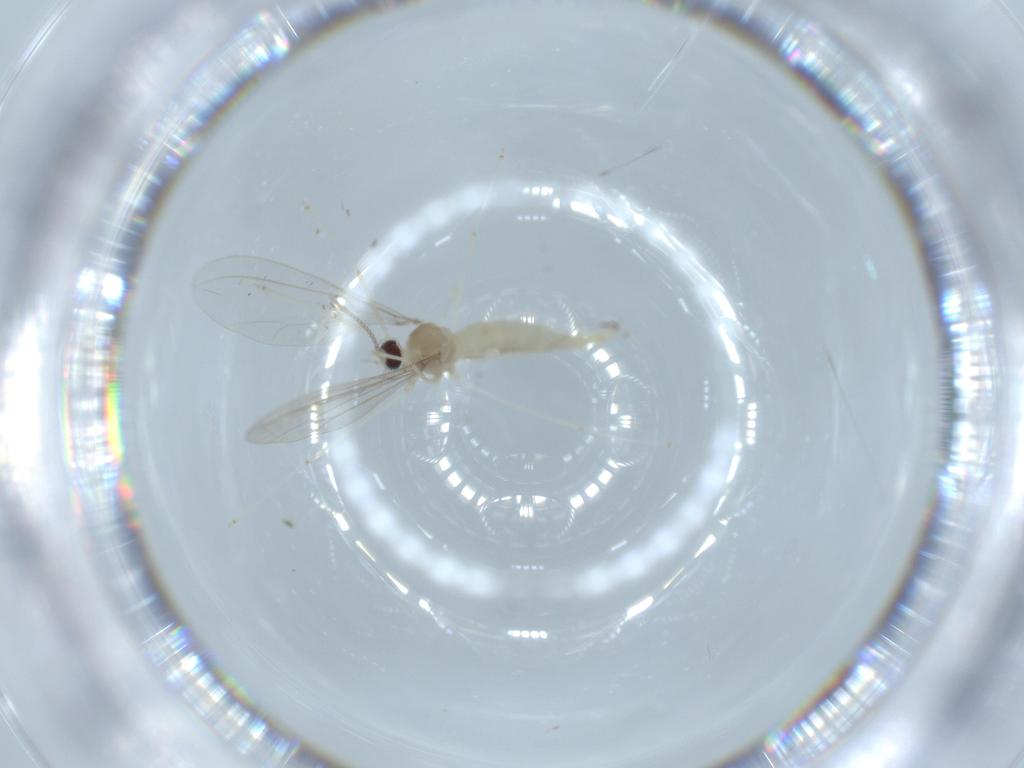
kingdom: Animalia
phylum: Arthropoda
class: Insecta
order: Diptera
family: Cecidomyiidae
